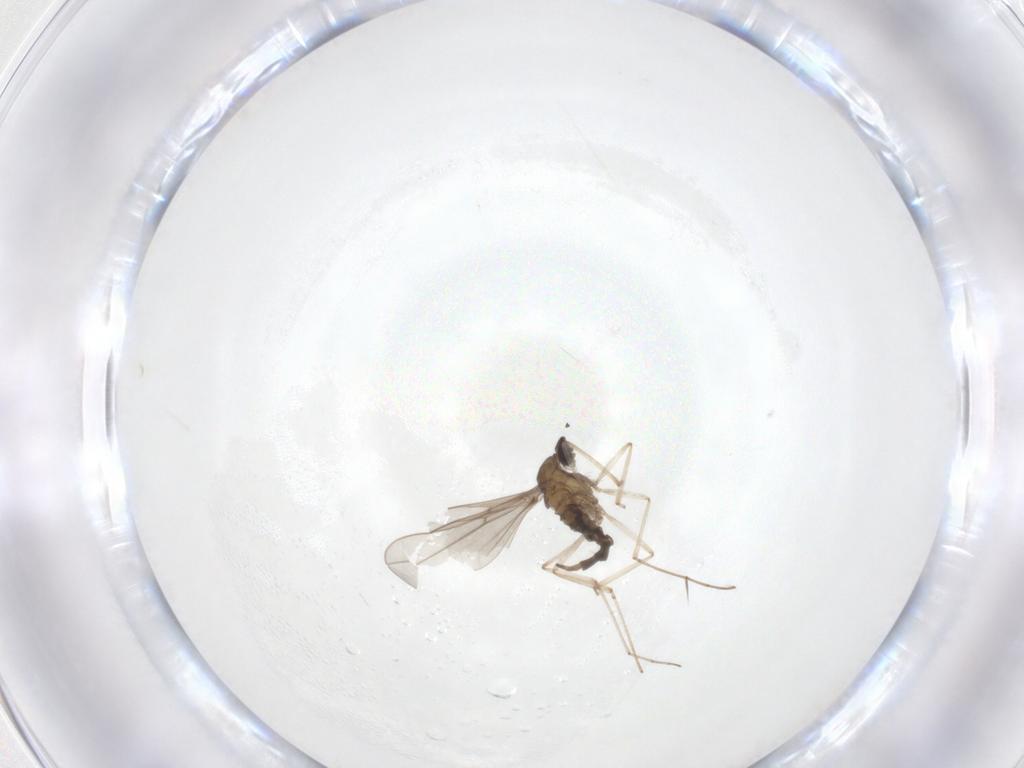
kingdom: Animalia
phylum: Arthropoda
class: Insecta
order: Diptera
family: Cecidomyiidae
